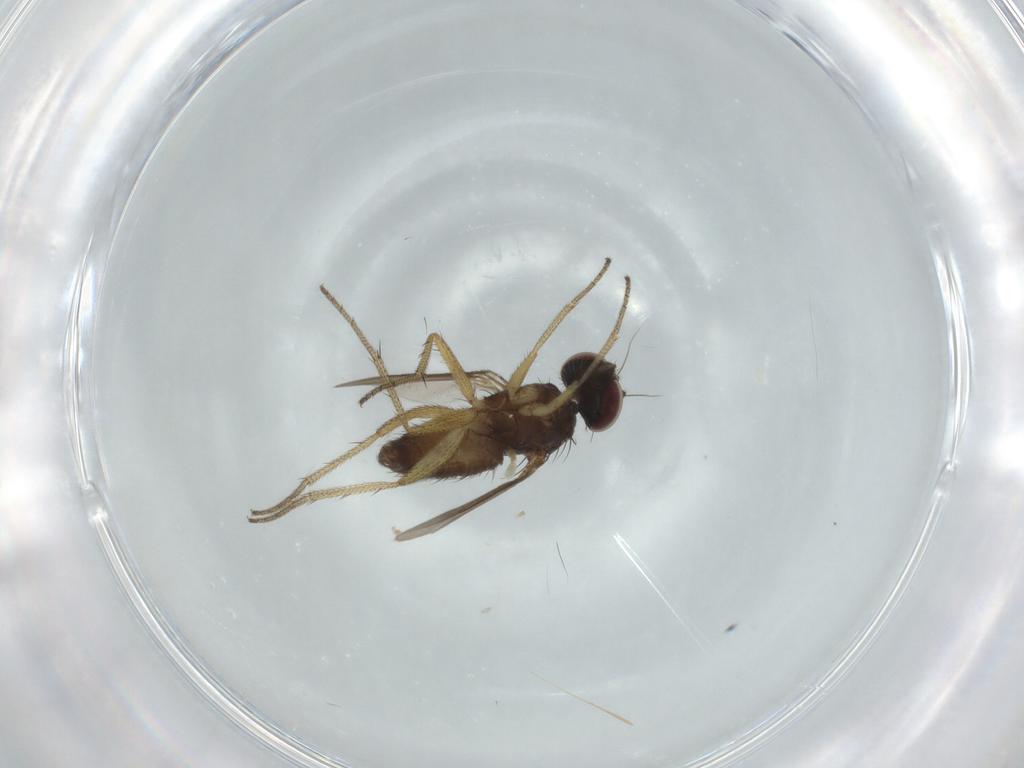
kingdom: Animalia
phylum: Arthropoda
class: Insecta
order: Diptera
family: Dolichopodidae
